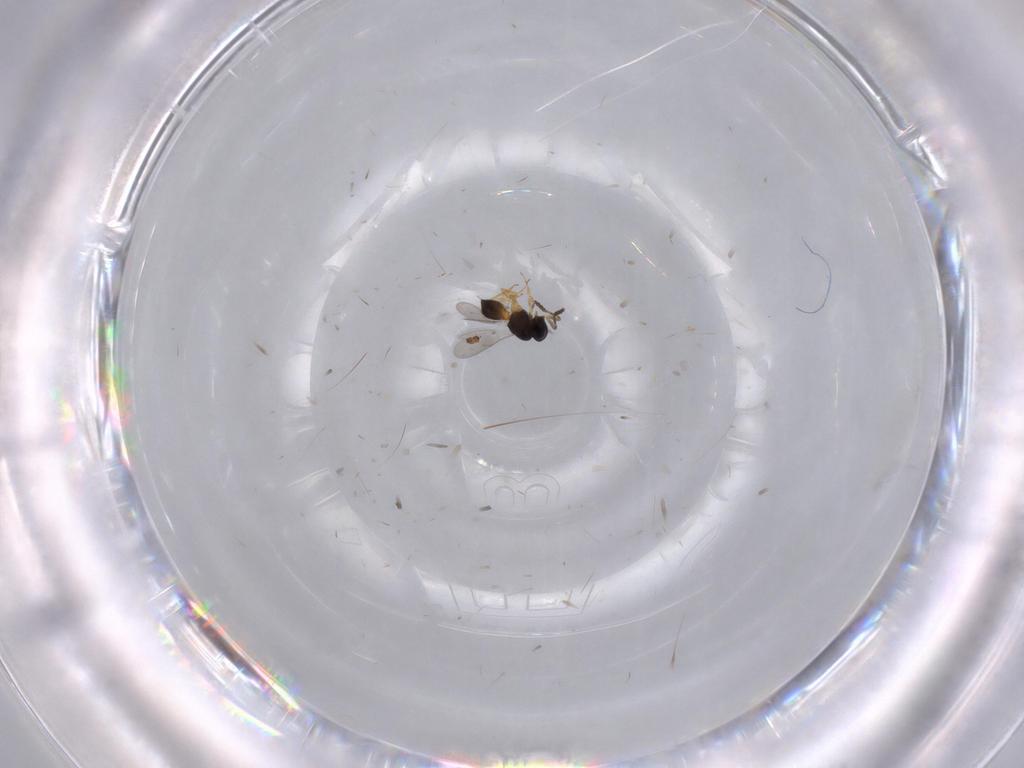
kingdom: Animalia
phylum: Arthropoda
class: Insecta
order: Hymenoptera
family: Scelionidae
